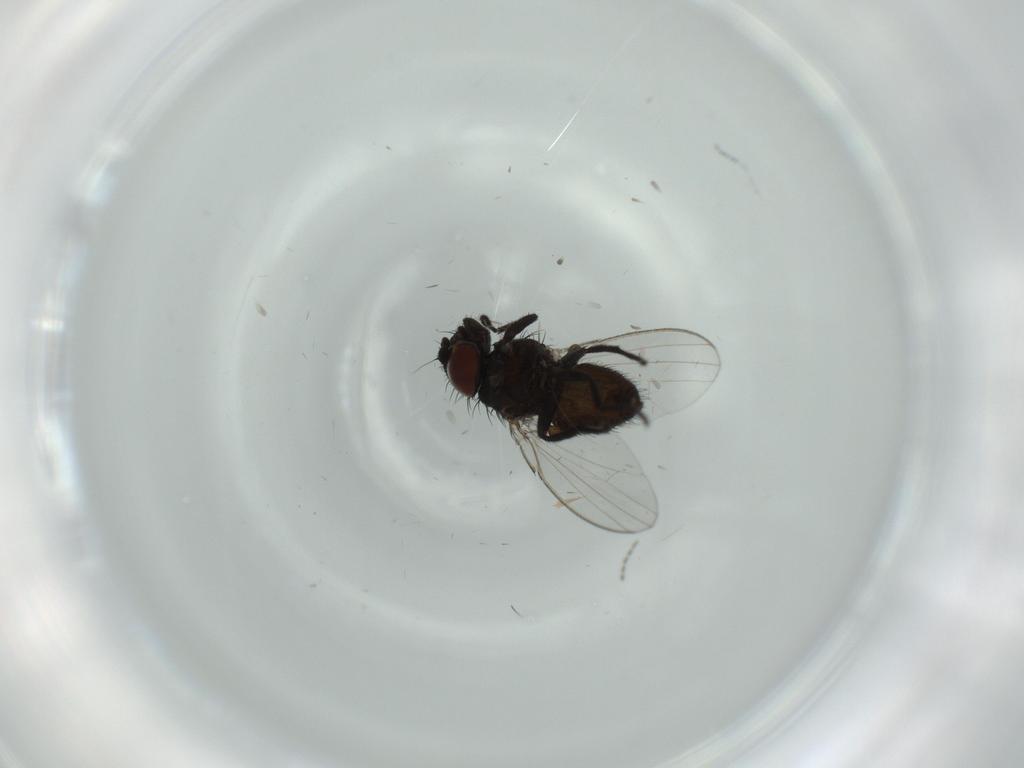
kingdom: Animalia
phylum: Arthropoda
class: Insecta
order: Diptera
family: Milichiidae
